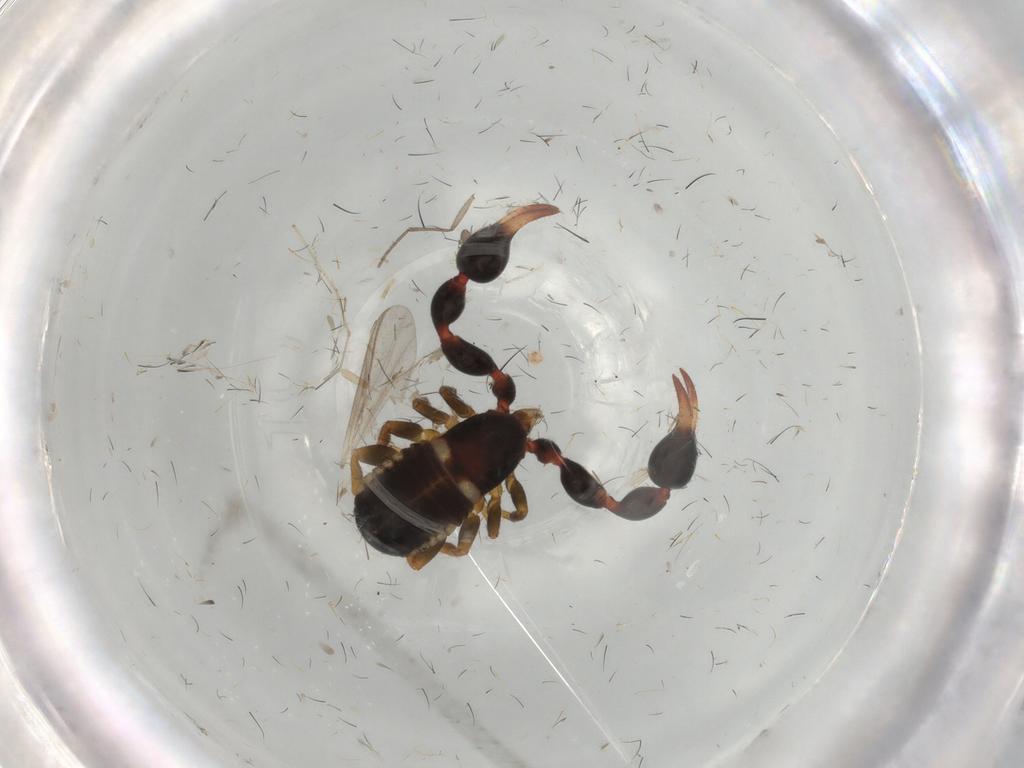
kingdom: Animalia
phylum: Arthropoda
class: Arachnida
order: Pseudoscorpiones
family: Chernetidae
